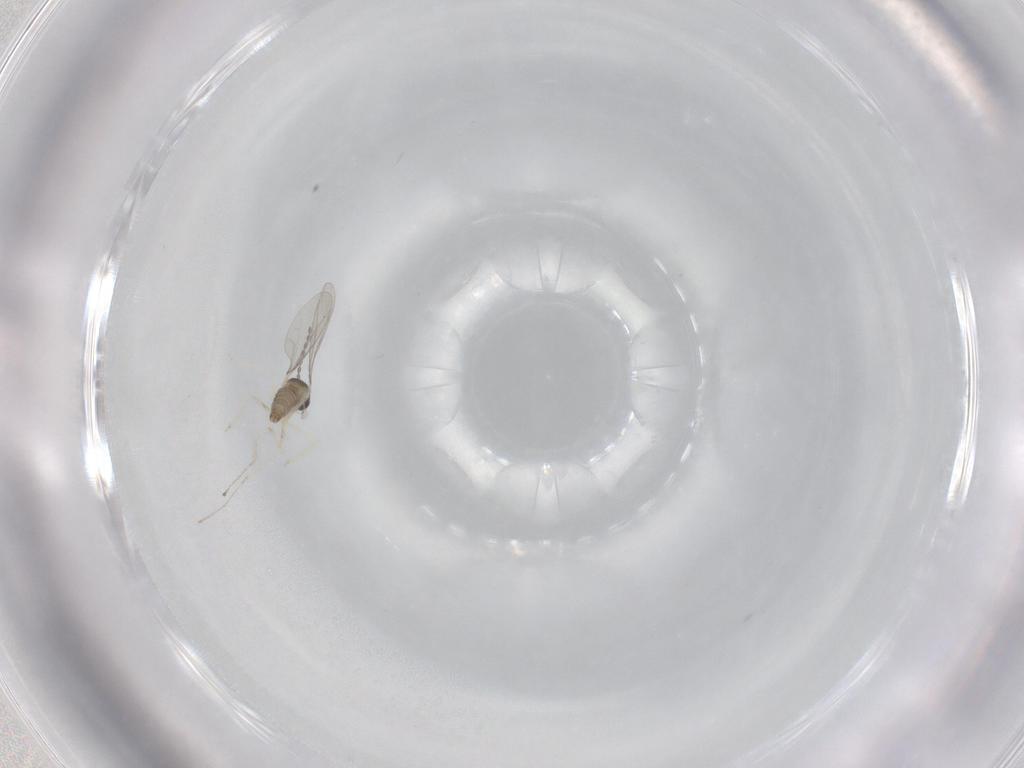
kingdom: Animalia
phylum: Arthropoda
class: Insecta
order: Diptera
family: Cecidomyiidae
